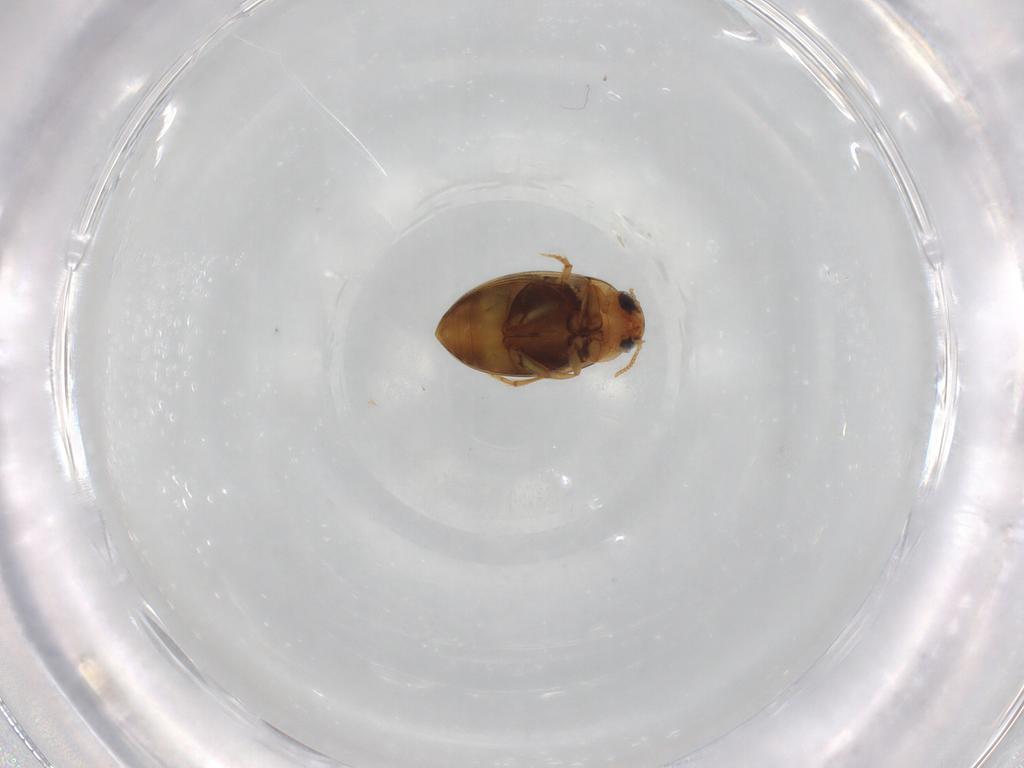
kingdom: Animalia
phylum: Arthropoda
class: Insecta
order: Coleoptera
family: Dytiscidae
